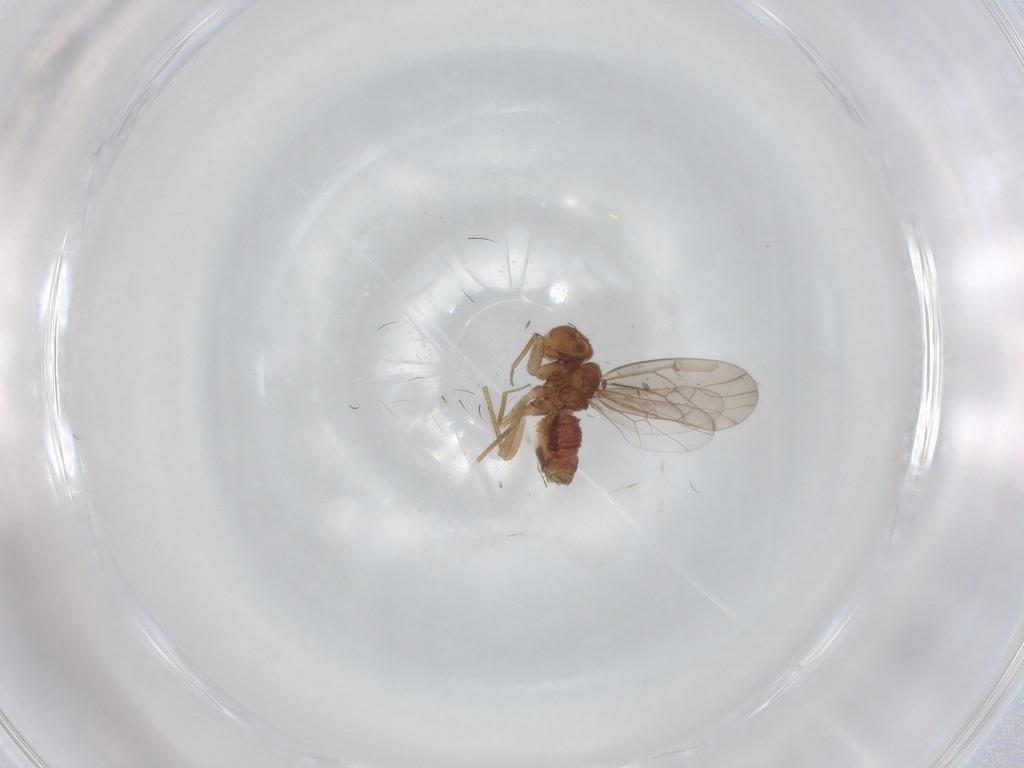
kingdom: Animalia
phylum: Arthropoda
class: Insecta
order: Psocodea
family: Ectopsocidae
